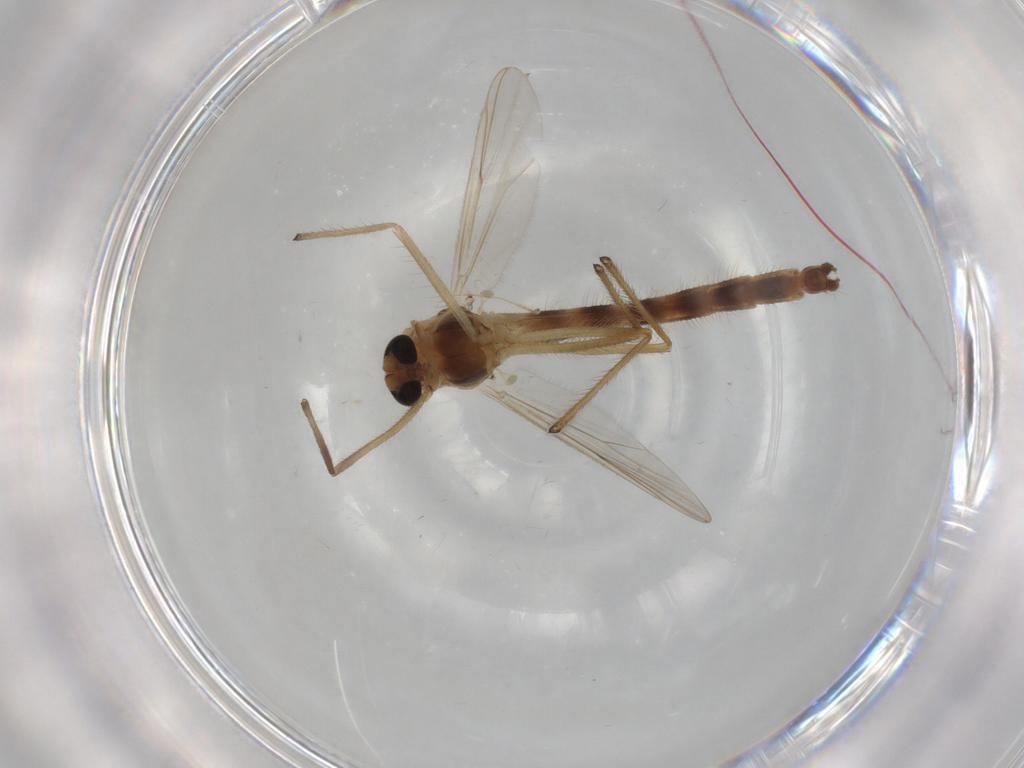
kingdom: Animalia
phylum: Arthropoda
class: Insecta
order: Diptera
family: Chironomidae
